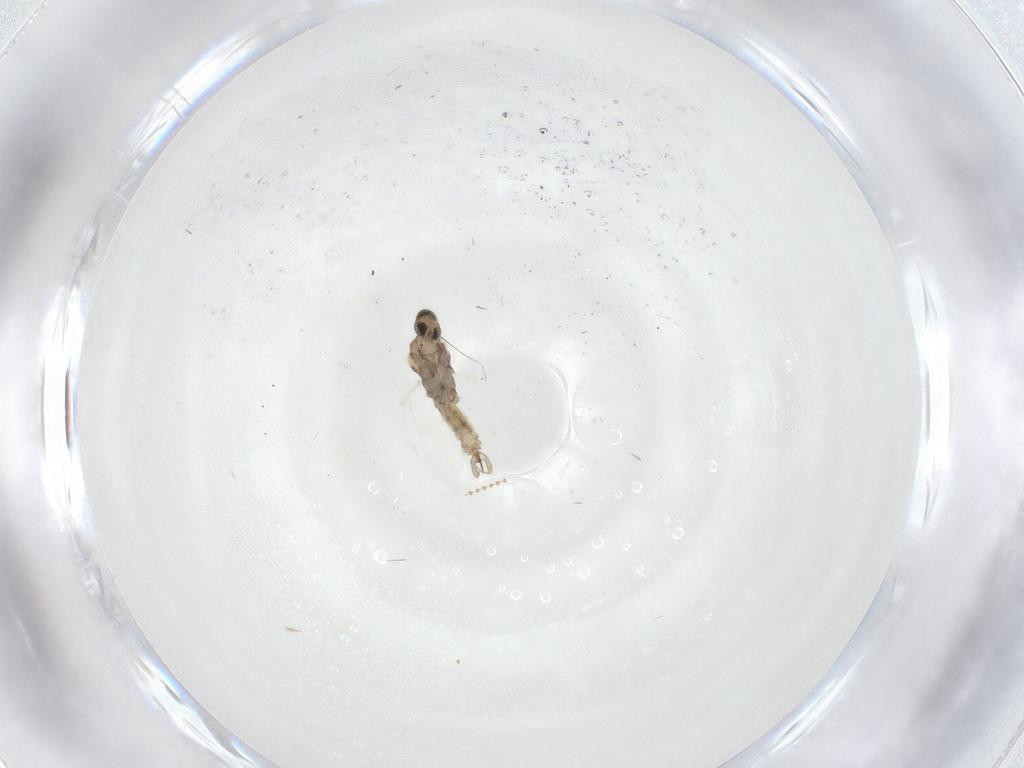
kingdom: Animalia
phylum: Arthropoda
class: Insecta
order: Diptera
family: Cecidomyiidae
